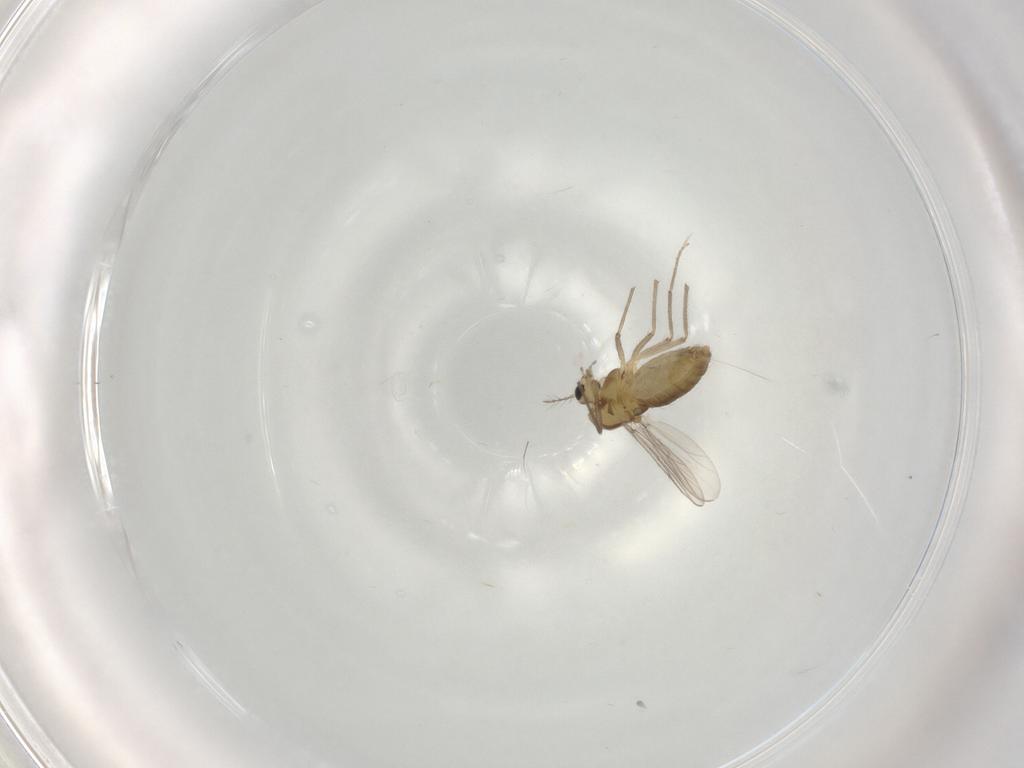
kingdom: Animalia
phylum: Arthropoda
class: Insecta
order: Diptera
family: Chironomidae
